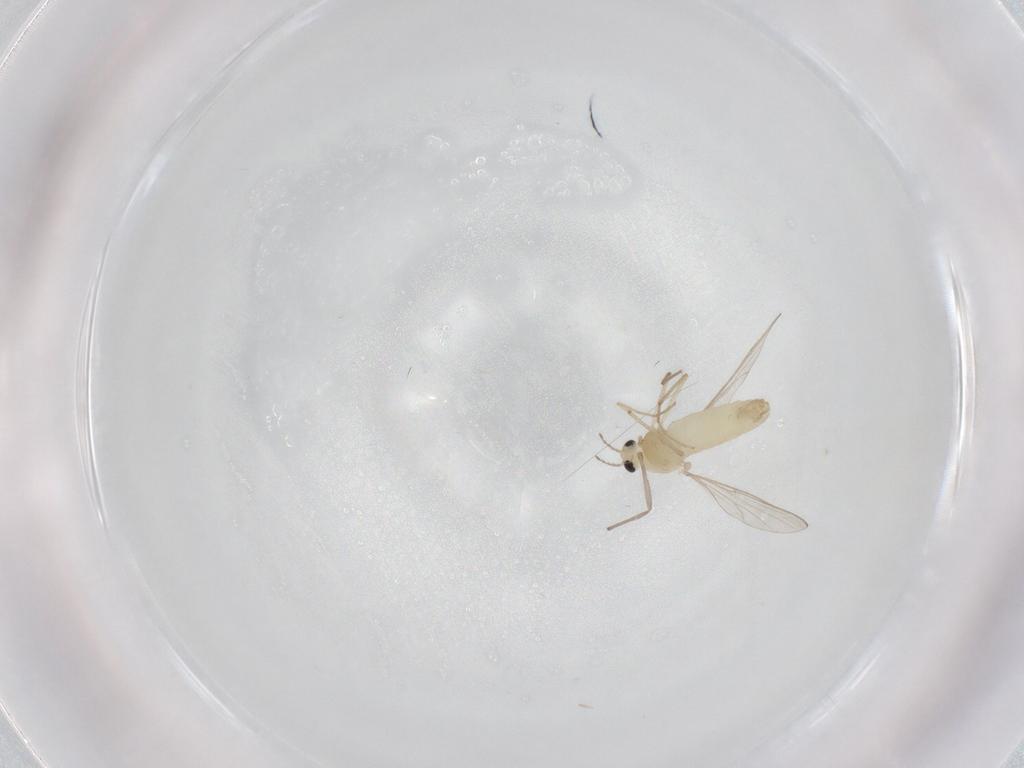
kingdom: Animalia
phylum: Arthropoda
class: Insecta
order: Diptera
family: Chironomidae
